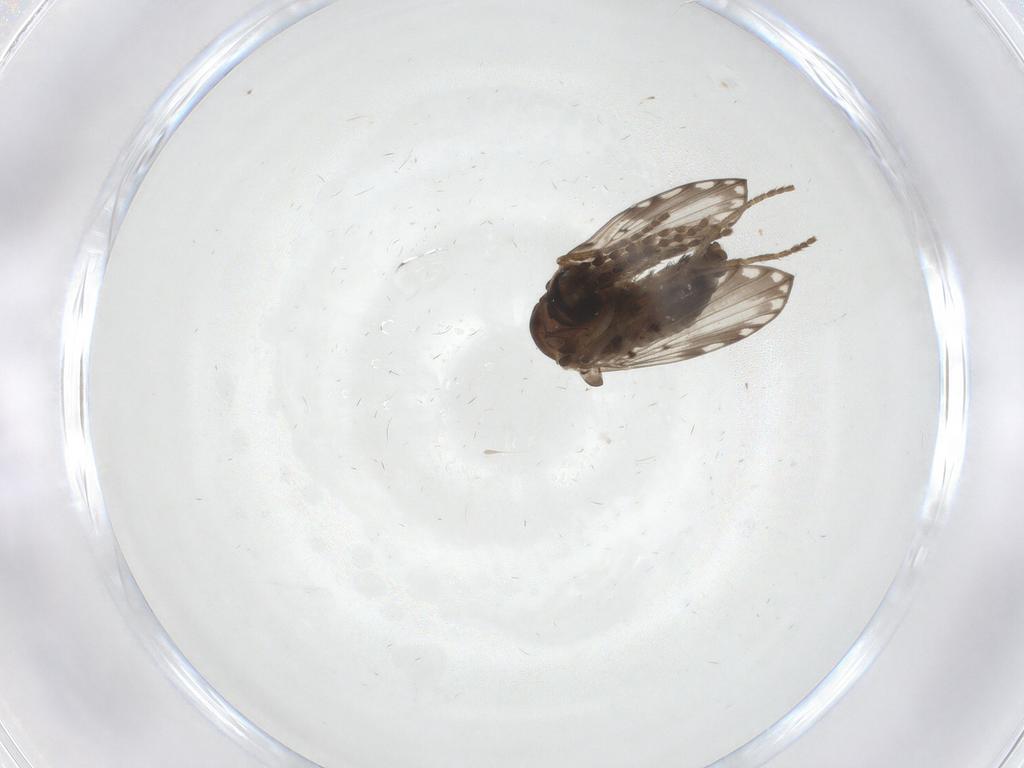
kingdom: Animalia
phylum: Arthropoda
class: Insecta
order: Diptera
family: Psychodidae
